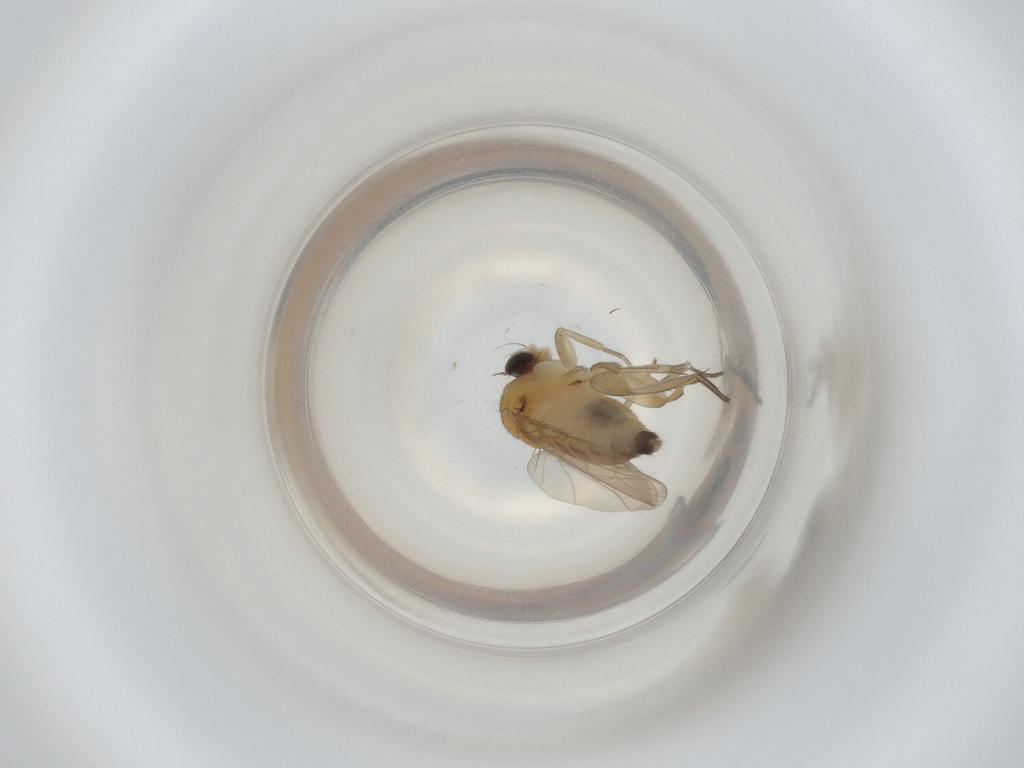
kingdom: Animalia
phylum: Arthropoda
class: Insecta
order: Diptera
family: Phoridae
